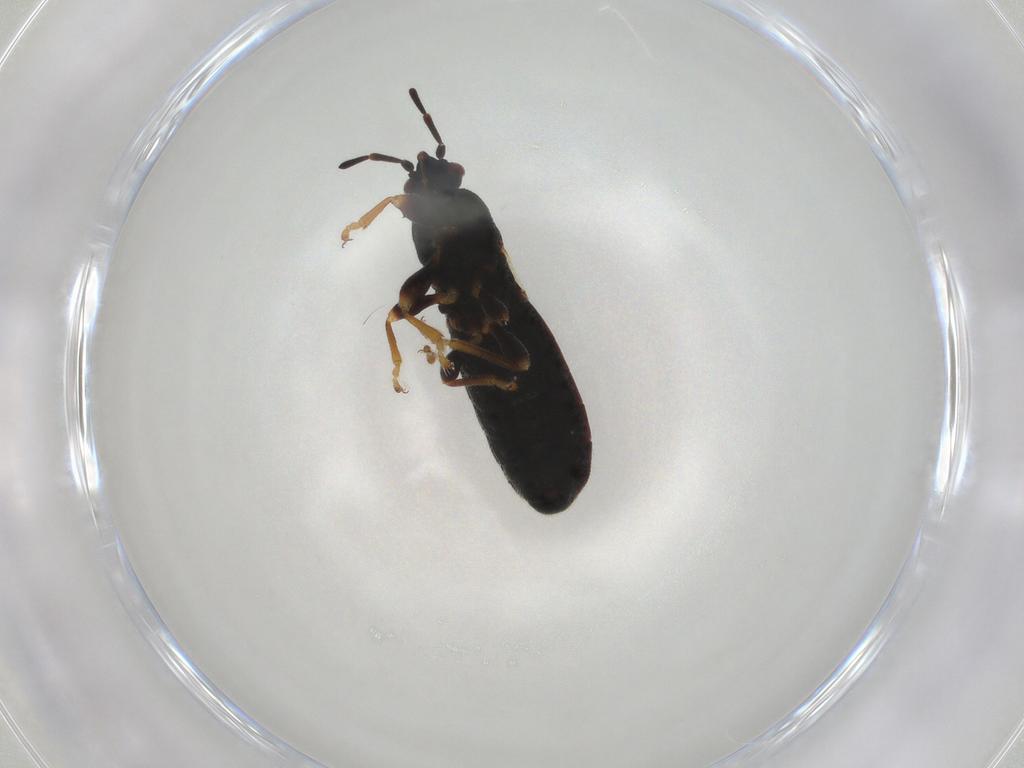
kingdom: Animalia
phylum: Arthropoda
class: Insecta
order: Hemiptera
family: Blissidae
